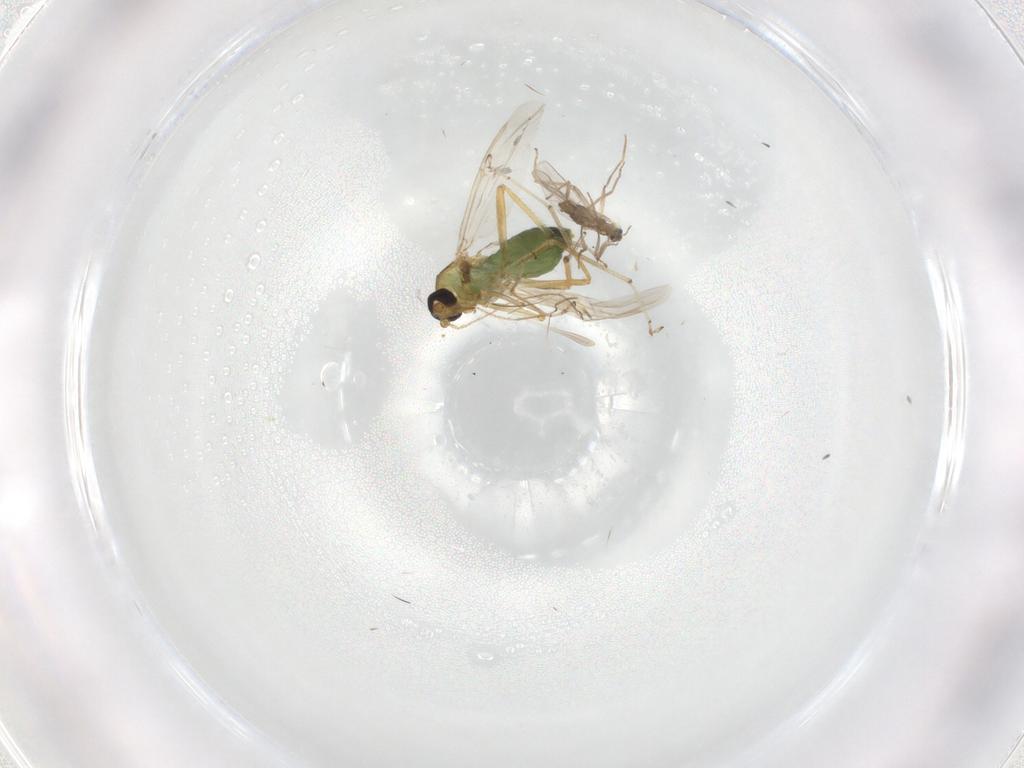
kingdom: Animalia
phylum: Arthropoda
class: Insecta
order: Diptera
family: Chironomidae
